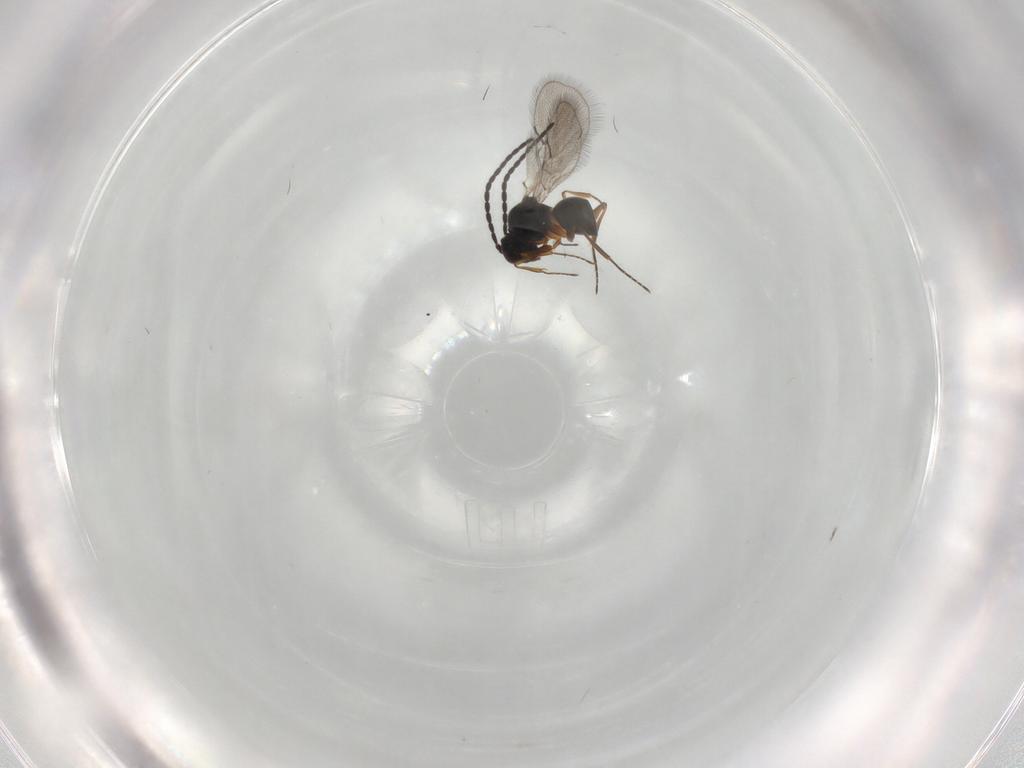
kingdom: Animalia
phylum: Arthropoda
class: Insecta
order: Hymenoptera
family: Figitidae
